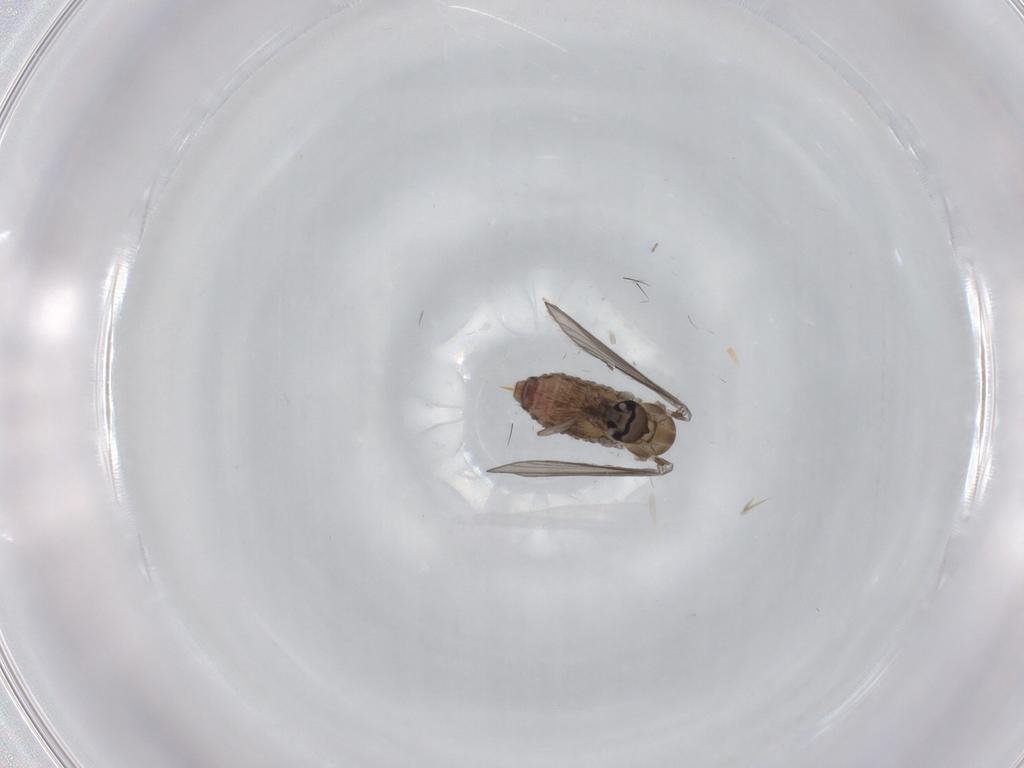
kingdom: Animalia
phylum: Arthropoda
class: Insecta
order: Diptera
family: Psychodidae
